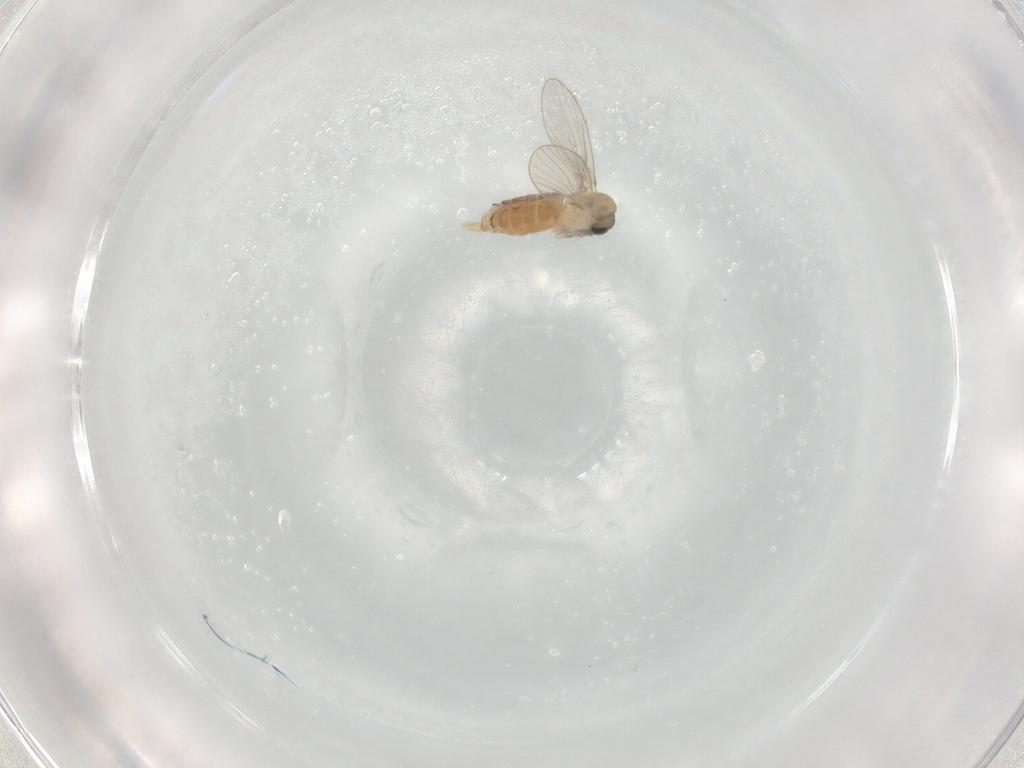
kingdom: Animalia
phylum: Arthropoda
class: Insecta
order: Diptera
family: Psychodidae
